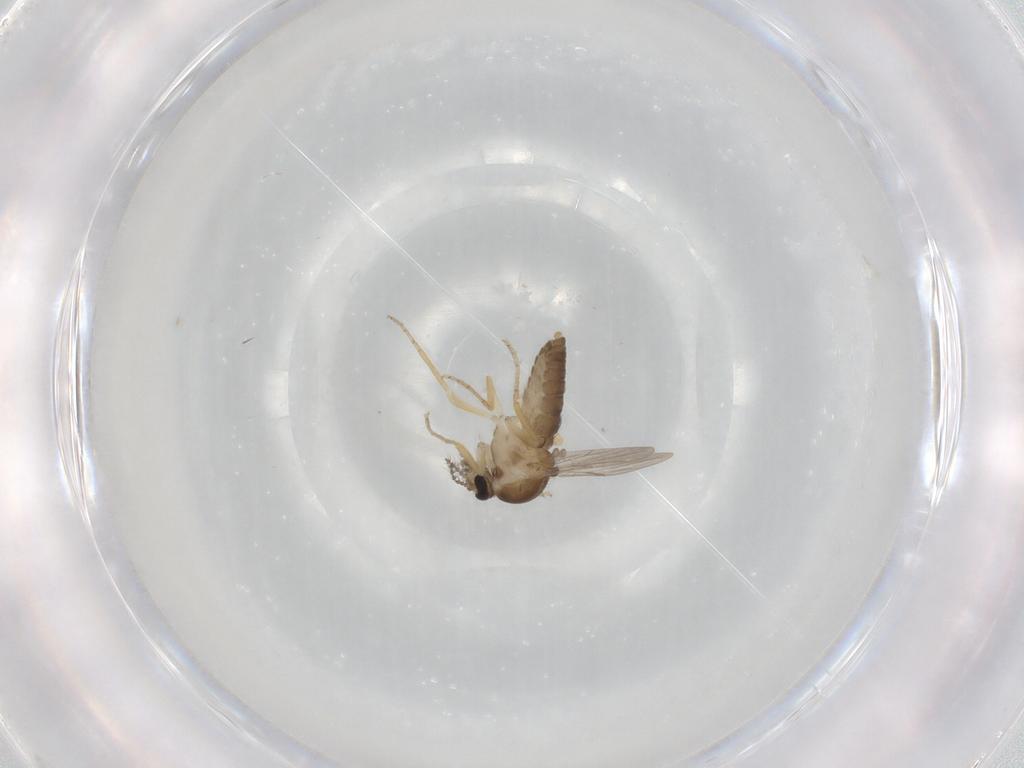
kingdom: Animalia
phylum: Arthropoda
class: Insecta
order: Diptera
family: Ceratopogonidae
